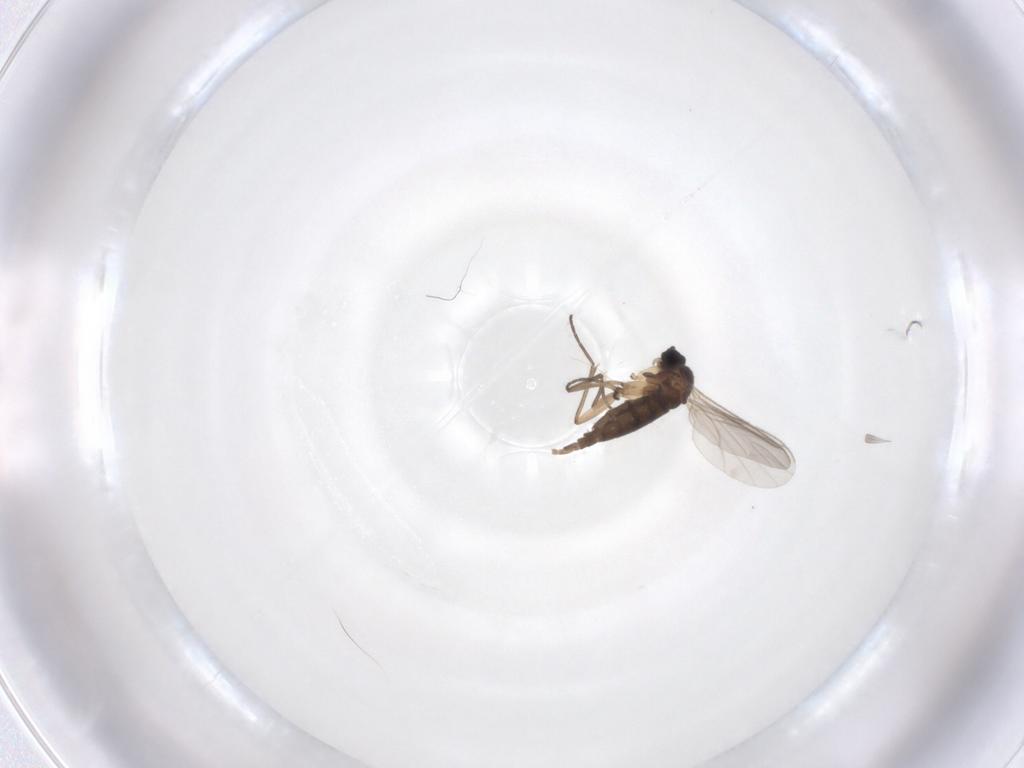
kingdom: Animalia
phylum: Arthropoda
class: Insecta
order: Diptera
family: Sciaridae
